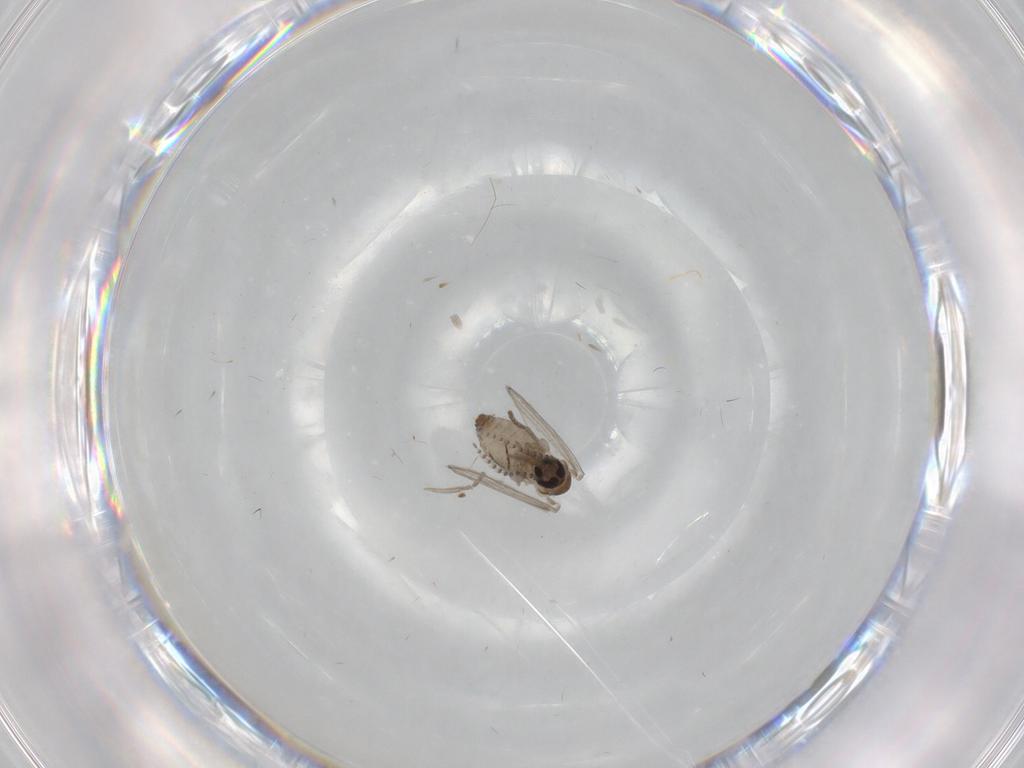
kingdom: Animalia
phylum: Arthropoda
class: Insecta
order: Diptera
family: Psychodidae
